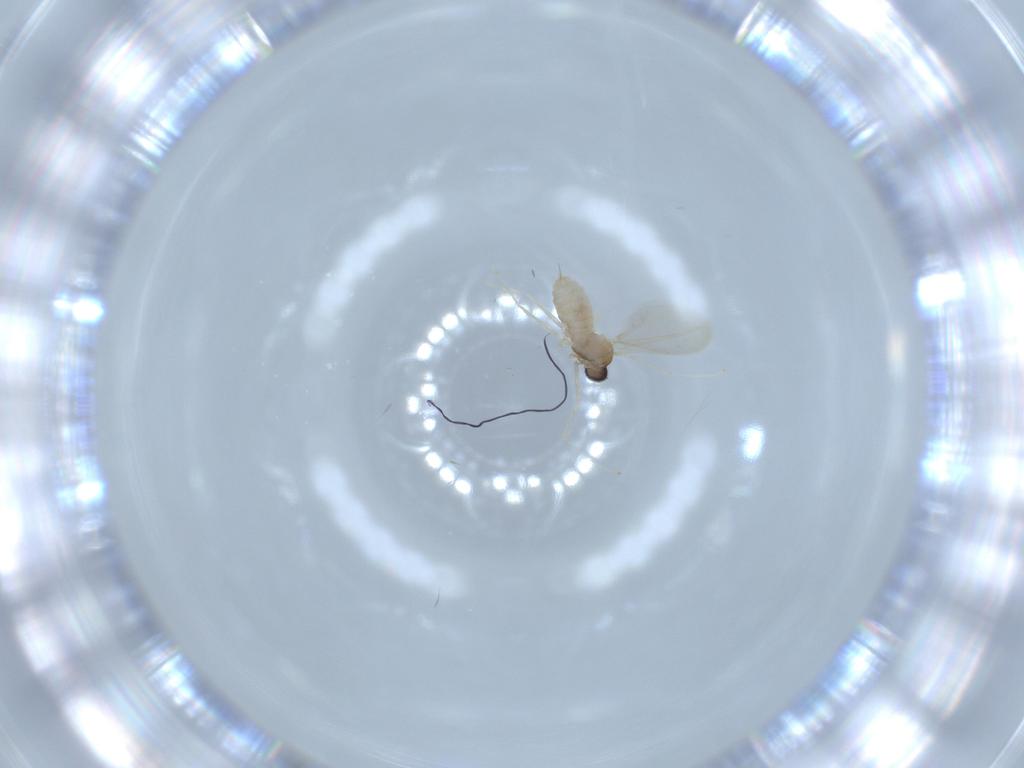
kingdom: Animalia
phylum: Arthropoda
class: Insecta
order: Diptera
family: Cecidomyiidae
